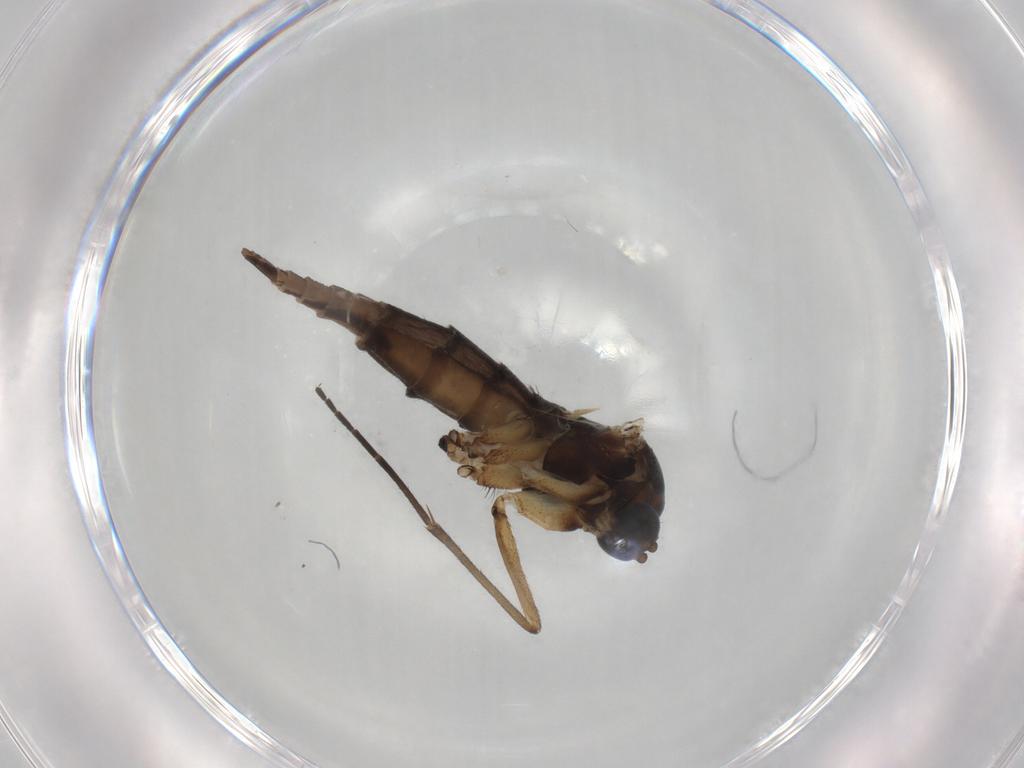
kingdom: Animalia
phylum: Arthropoda
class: Insecta
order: Diptera
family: Sciaridae
